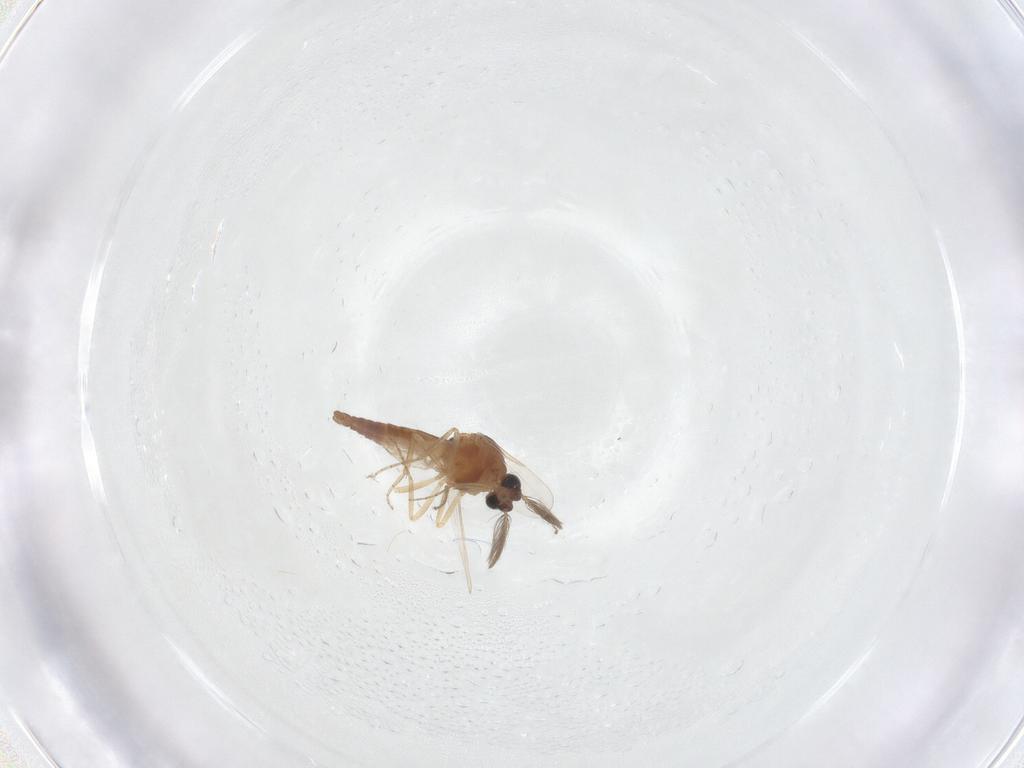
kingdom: Animalia
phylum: Arthropoda
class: Insecta
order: Diptera
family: Ceratopogonidae
